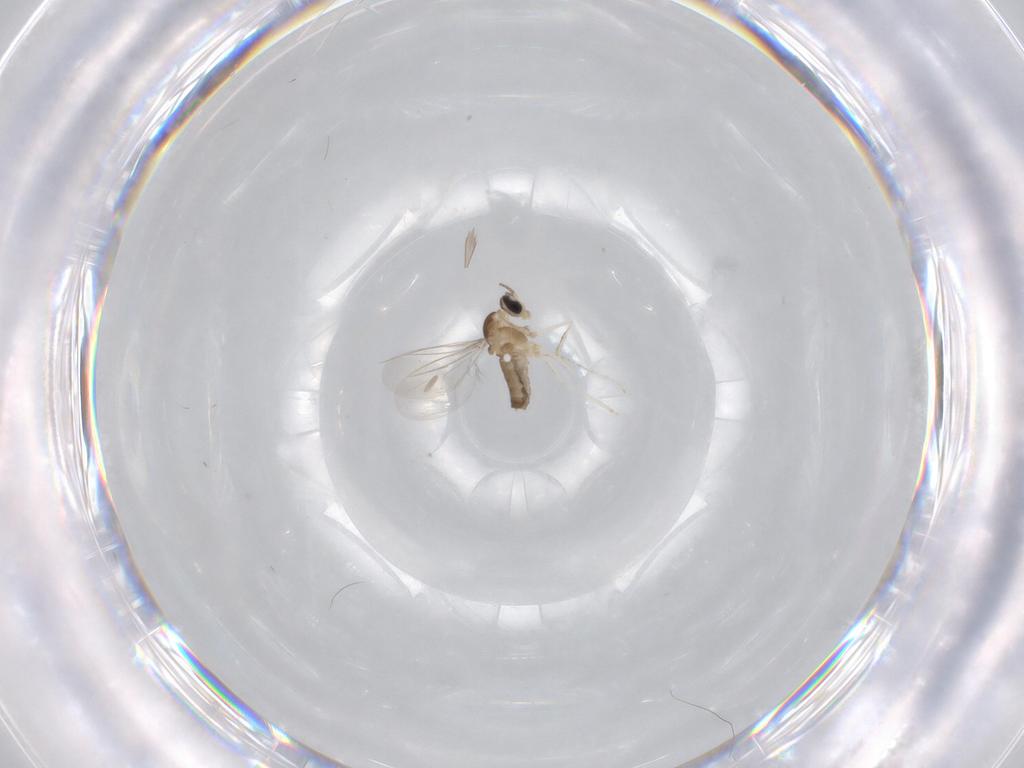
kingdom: Animalia
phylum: Arthropoda
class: Insecta
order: Diptera
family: Cecidomyiidae
